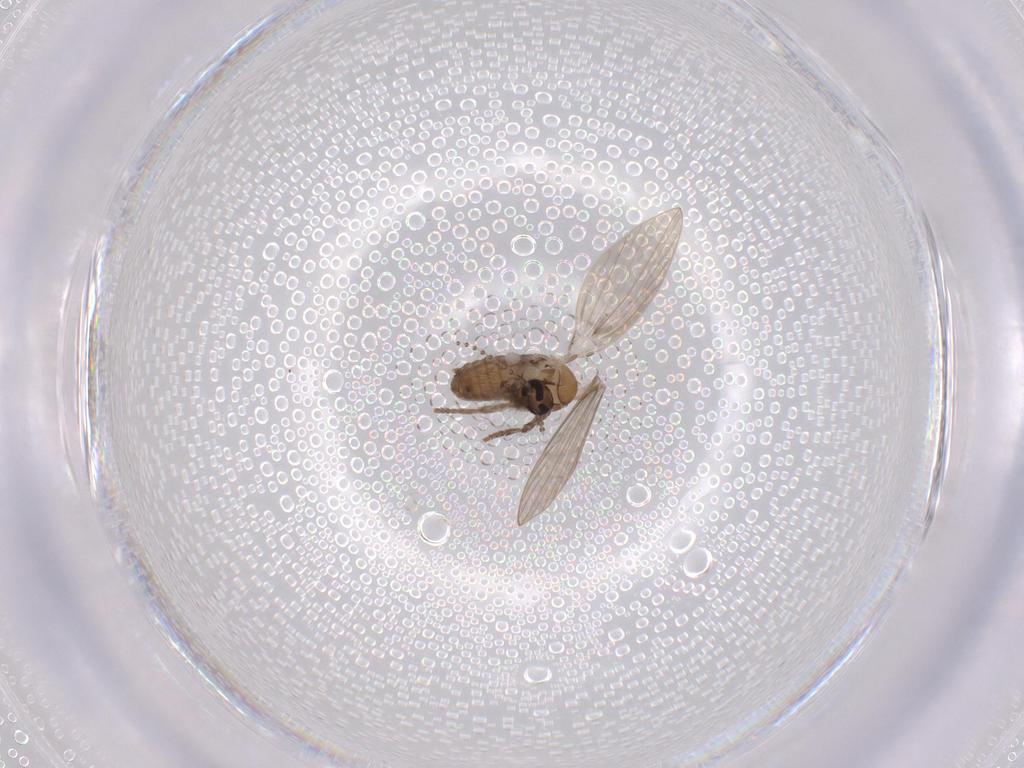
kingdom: Animalia
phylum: Arthropoda
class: Insecta
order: Diptera
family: Psychodidae
